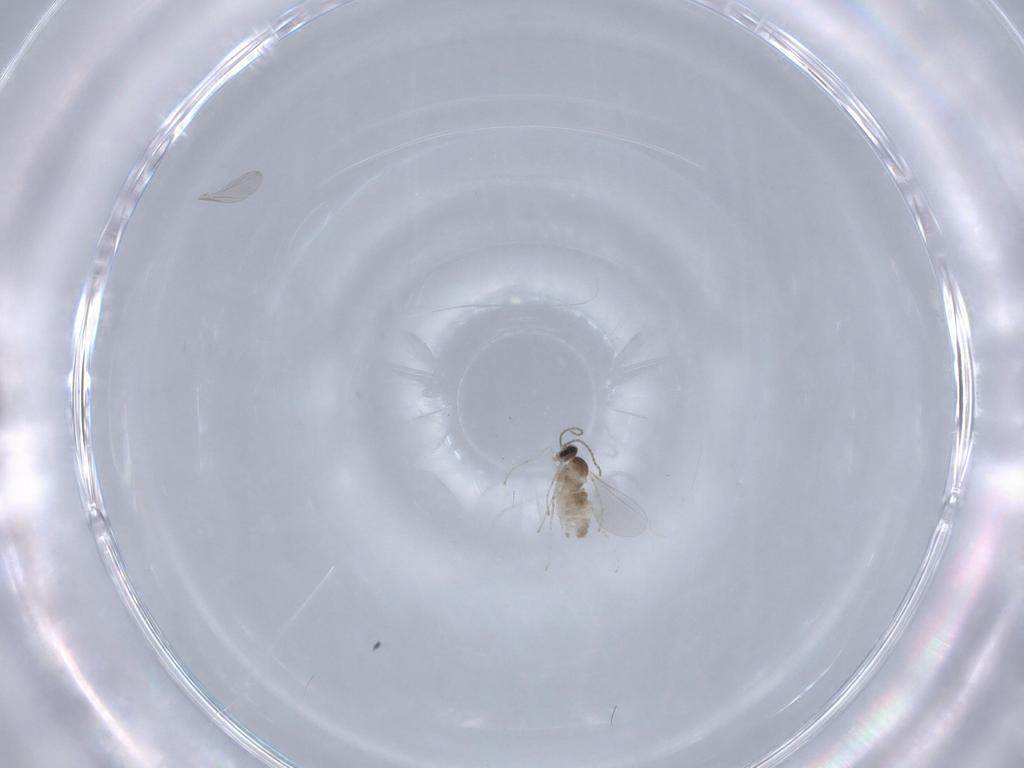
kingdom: Animalia
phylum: Arthropoda
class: Insecta
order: Diptera
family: Cecidomyiidae
